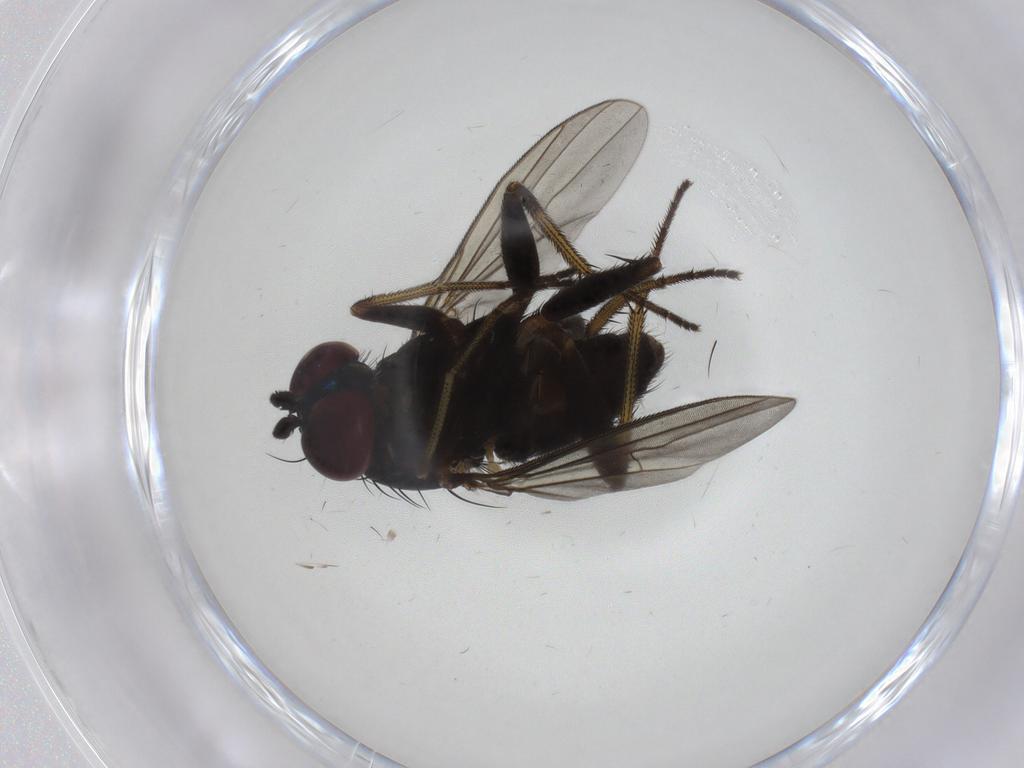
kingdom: Animalia
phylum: Arthropoda
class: Insecta
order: Diptera
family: Dolichopodidae
